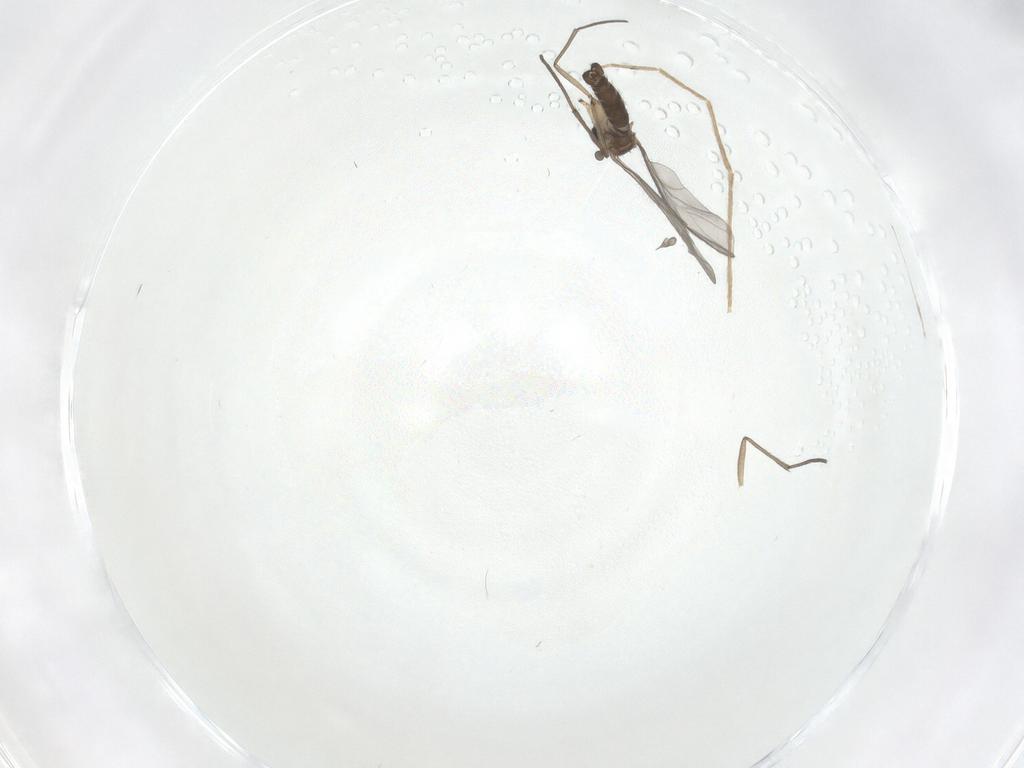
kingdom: Animalia
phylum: Arthropoda
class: Insecta
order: Diptera
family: Sciaridae
